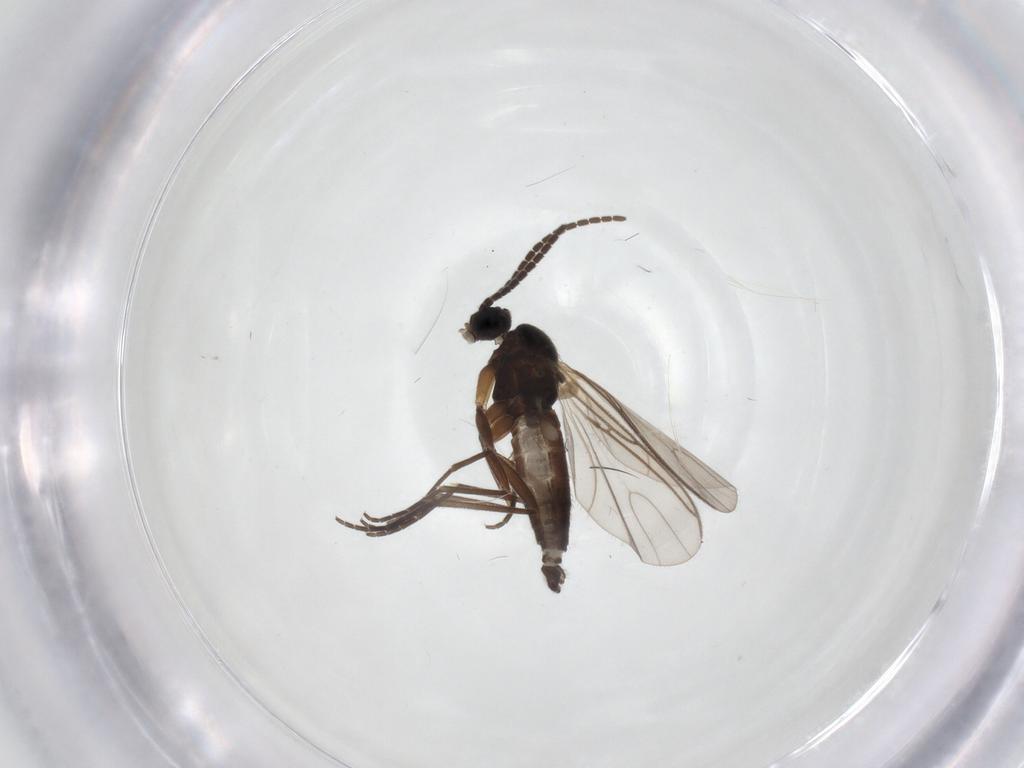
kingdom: Animalia
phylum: Arthropoda
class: Insecta
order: Diptera
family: Sciaridae
